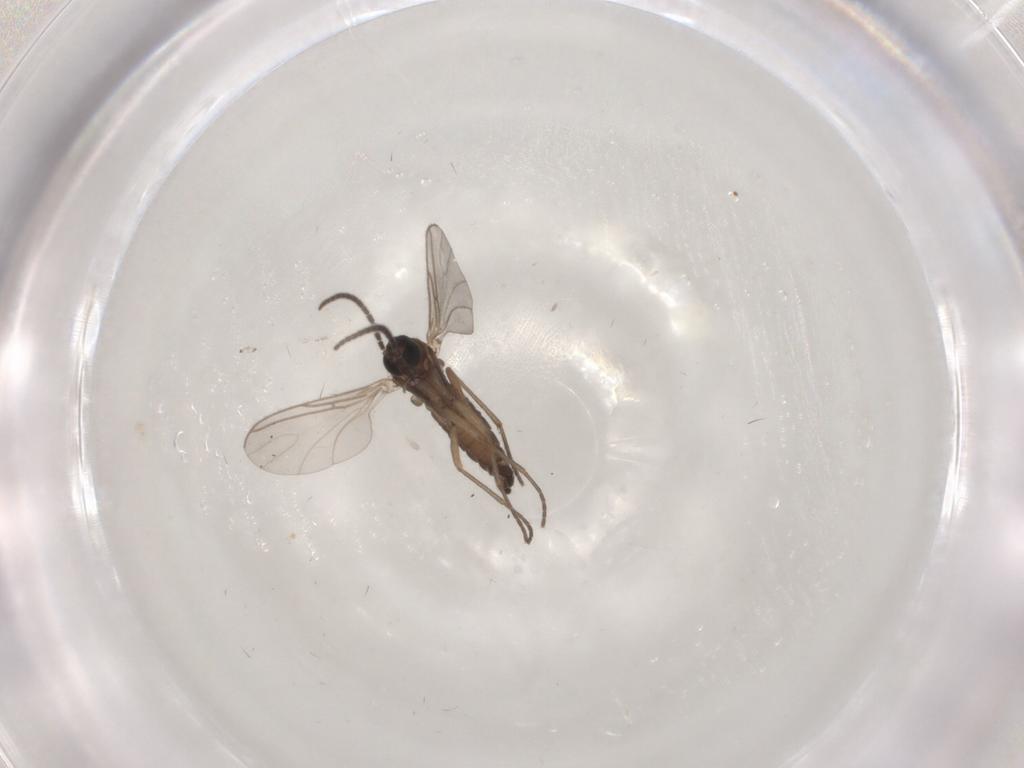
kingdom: Animalia
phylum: Arthropoda
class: Insecta
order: Diptera
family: Sciaridae
